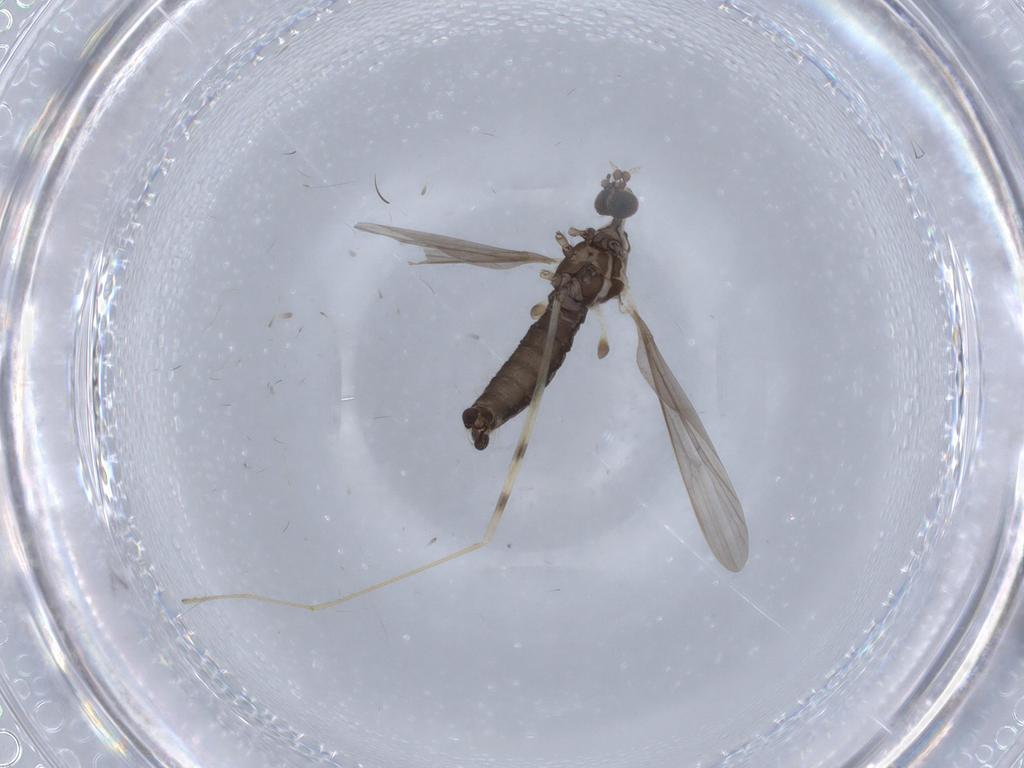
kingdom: Animalia
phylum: Arthropoda
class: Insecta
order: Diptera
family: Limoniidae
